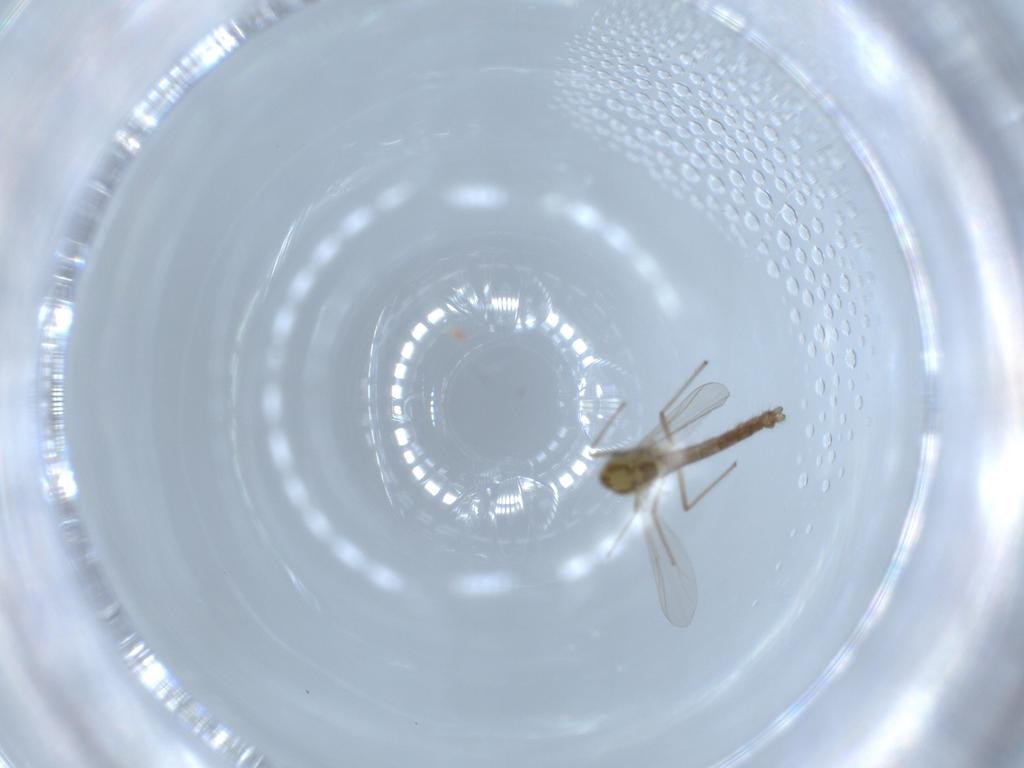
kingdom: Animalia
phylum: Arthropoda
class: Insecta
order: Diptera
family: Chironomidae
